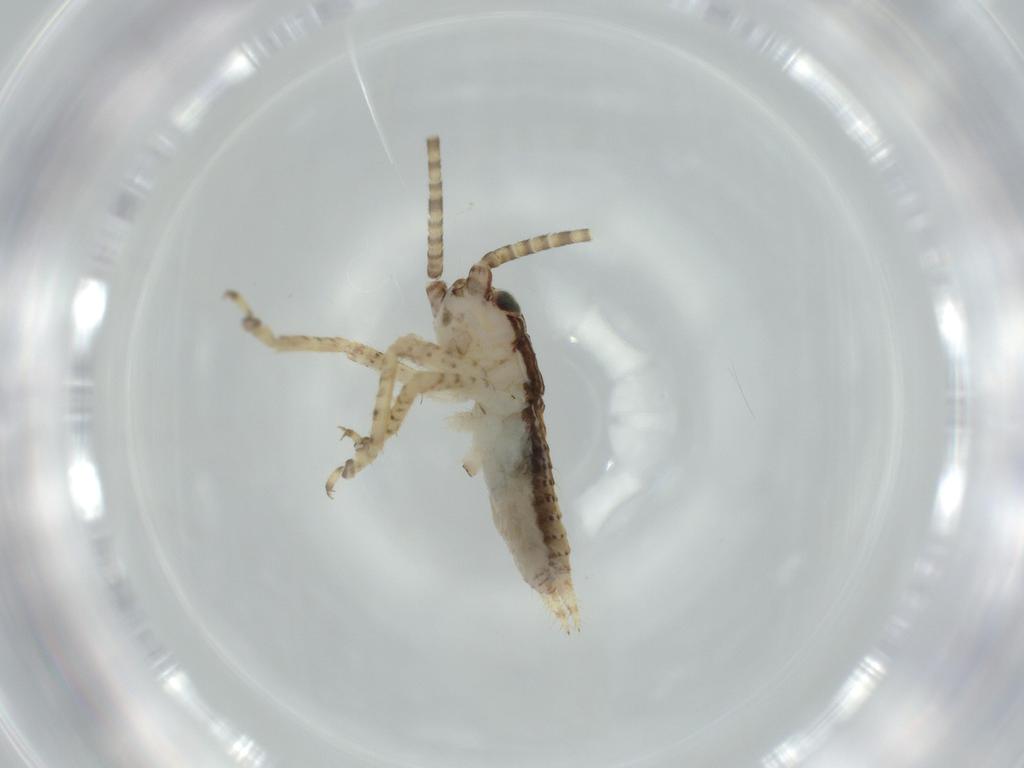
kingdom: Animalia
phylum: Arthropoda
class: Insecta
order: Orthoptera
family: Gryllidae
